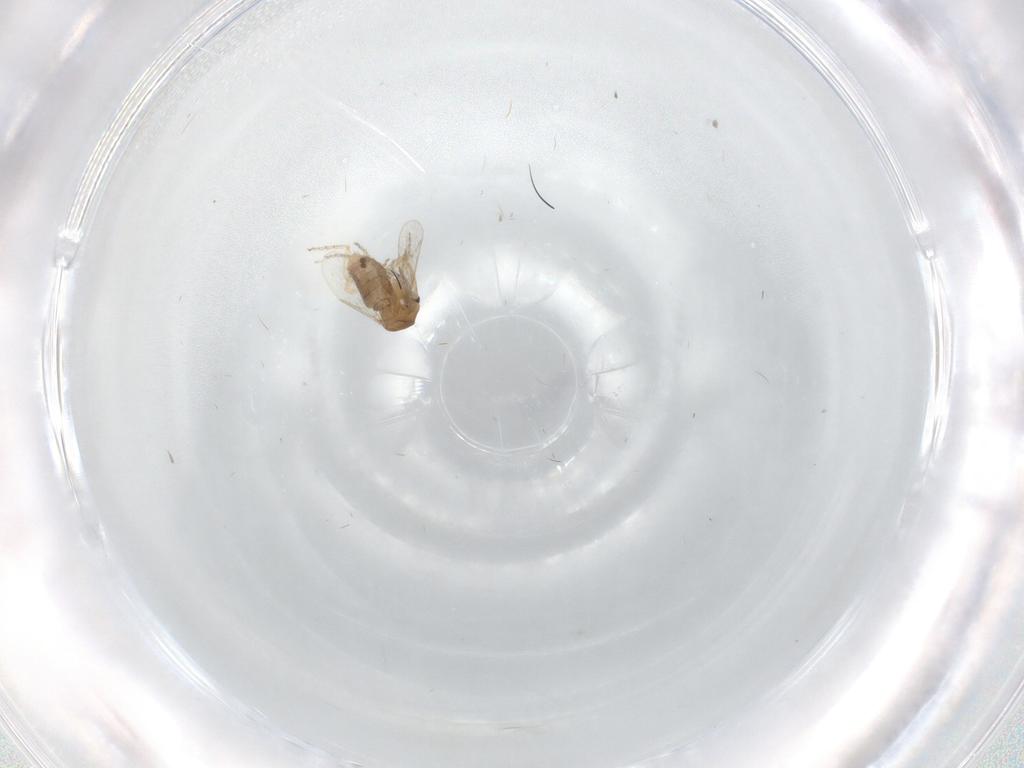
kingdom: Animalia
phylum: Arthropoda
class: Insecta
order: Diptera
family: Ceratopogonidae
